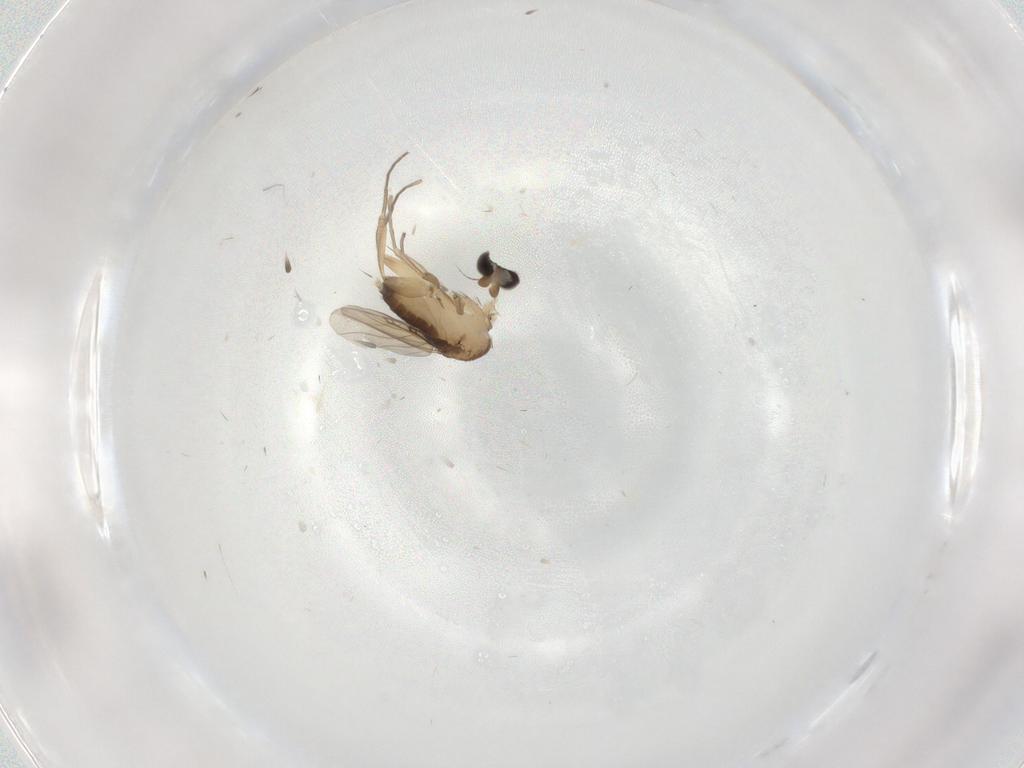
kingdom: Animalia
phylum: Arthropoda
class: Insecta
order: Diptera
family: Phoridae
